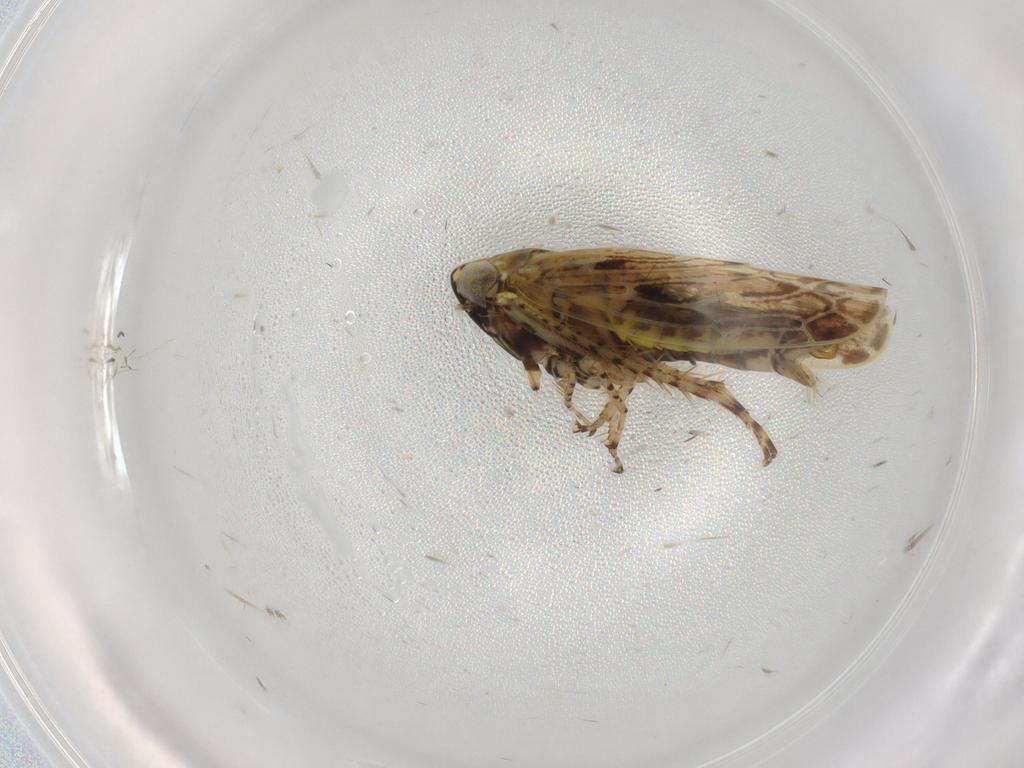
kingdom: Animalia
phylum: Arthropoda
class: Insecta
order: Hemiptera
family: Cicadellidae
